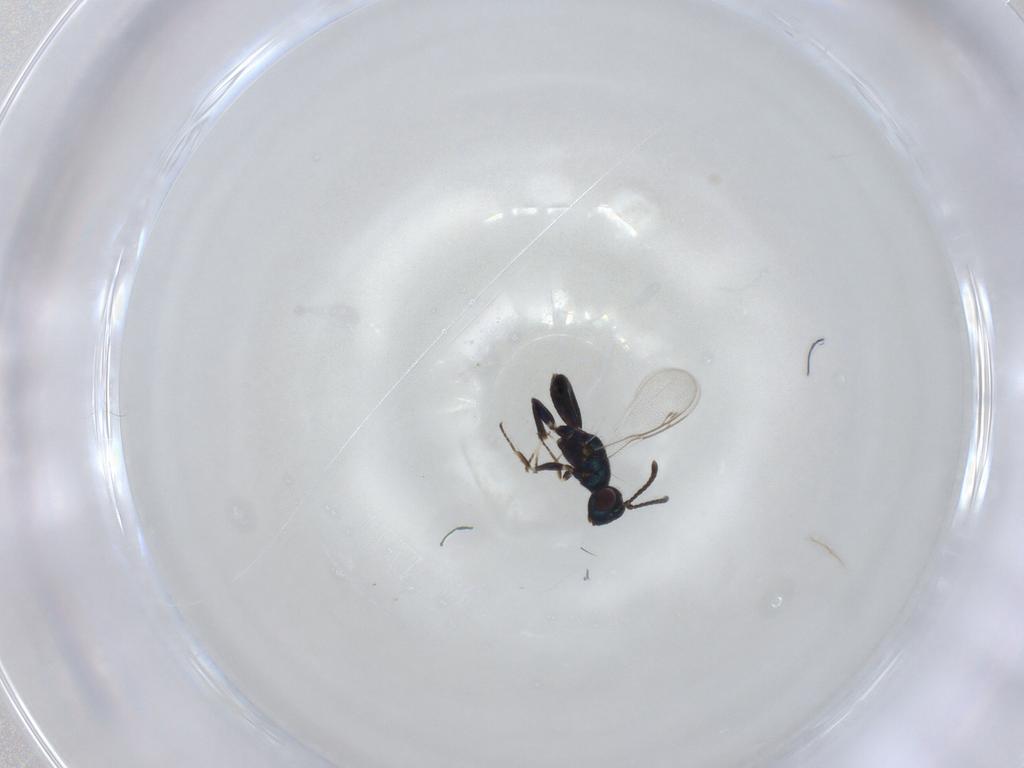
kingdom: Animalia
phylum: Arthropoda
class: Insecta
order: Hymenoptera
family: Eupelmidae
